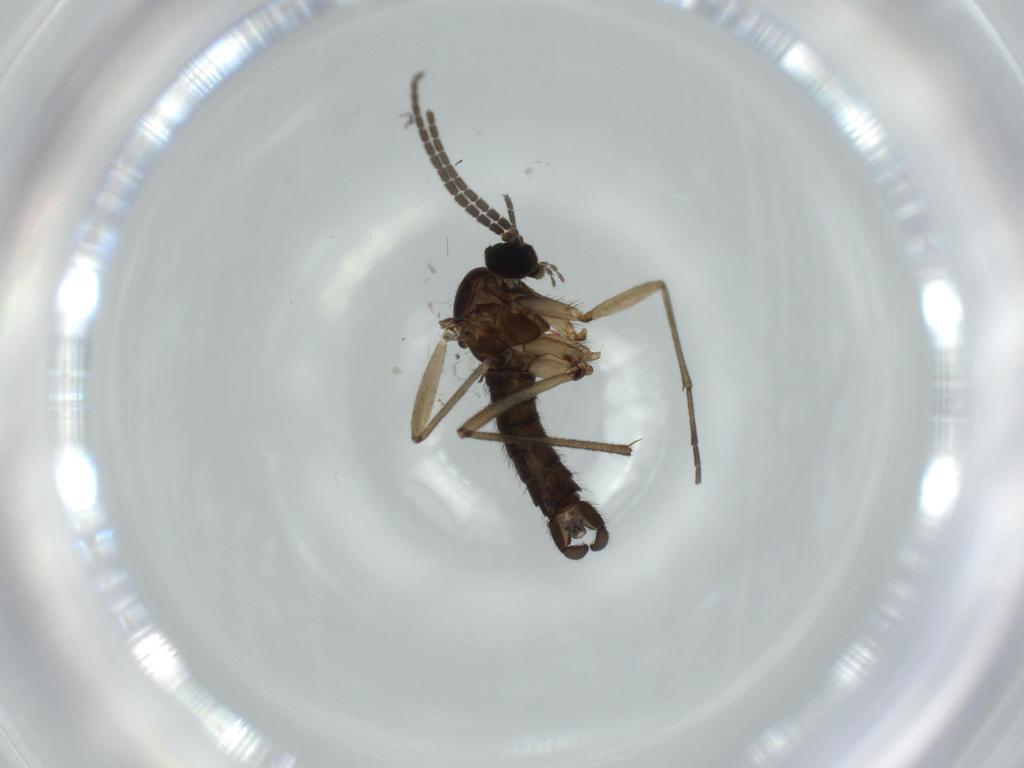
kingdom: Animalia
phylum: Arthropoda
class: Insecta
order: Diptera
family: Sciaridae
